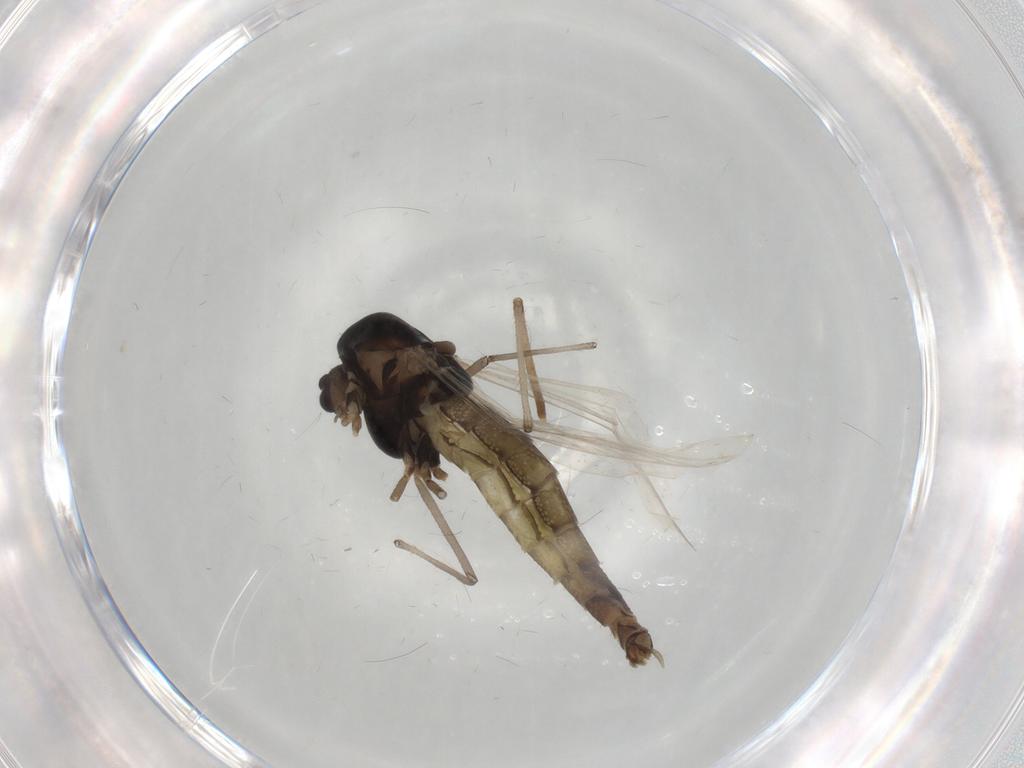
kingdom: Animalia
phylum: Arthropoda
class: Insecta
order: Diptera
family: Chironomidae
